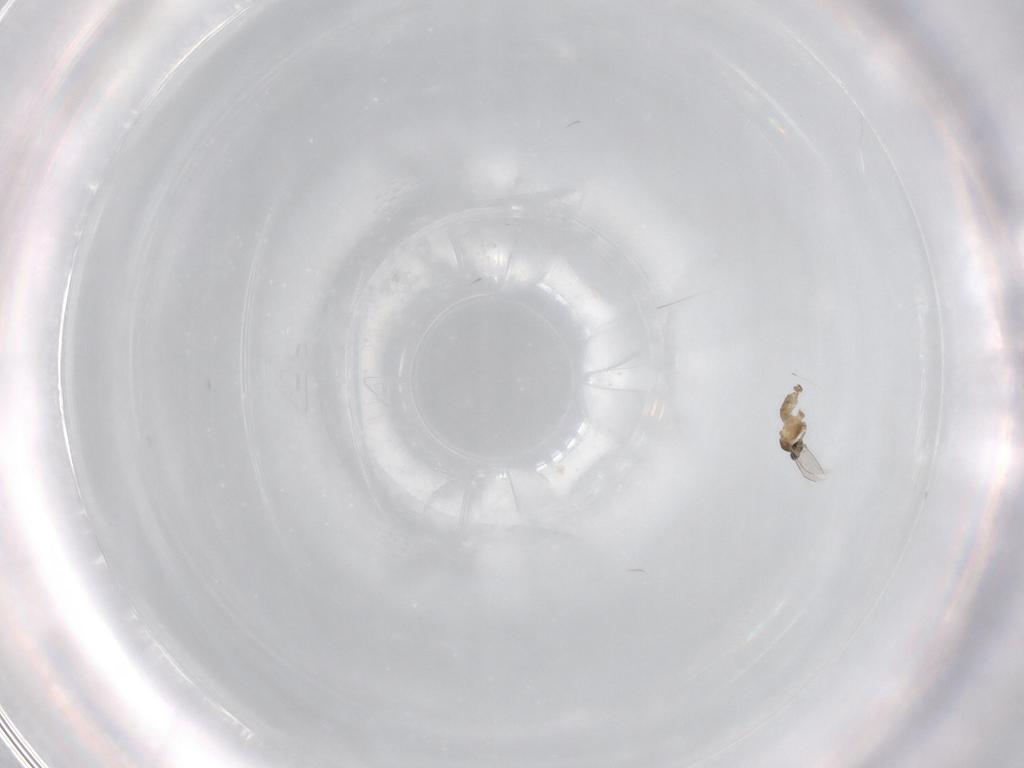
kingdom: Animalia
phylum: Arthropoda
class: Insecta
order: Diptera
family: Cecidomyiidae
